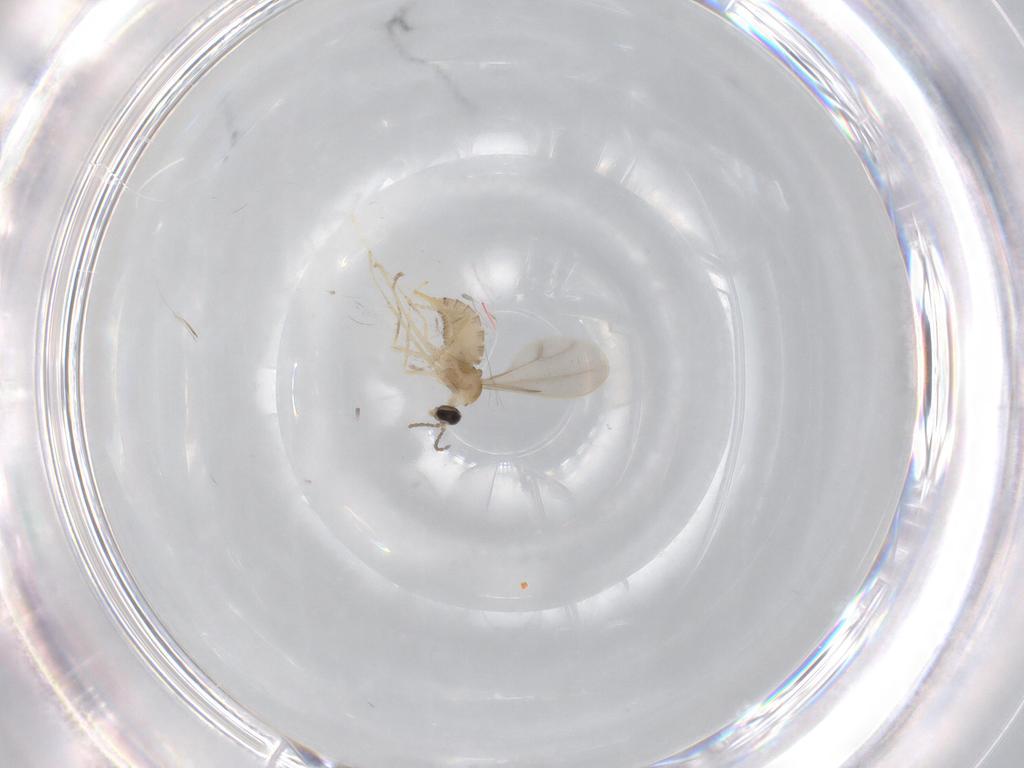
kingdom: Animalia
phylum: Arthropoda
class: Insecta
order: Diptera
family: Cecidomyiidae
